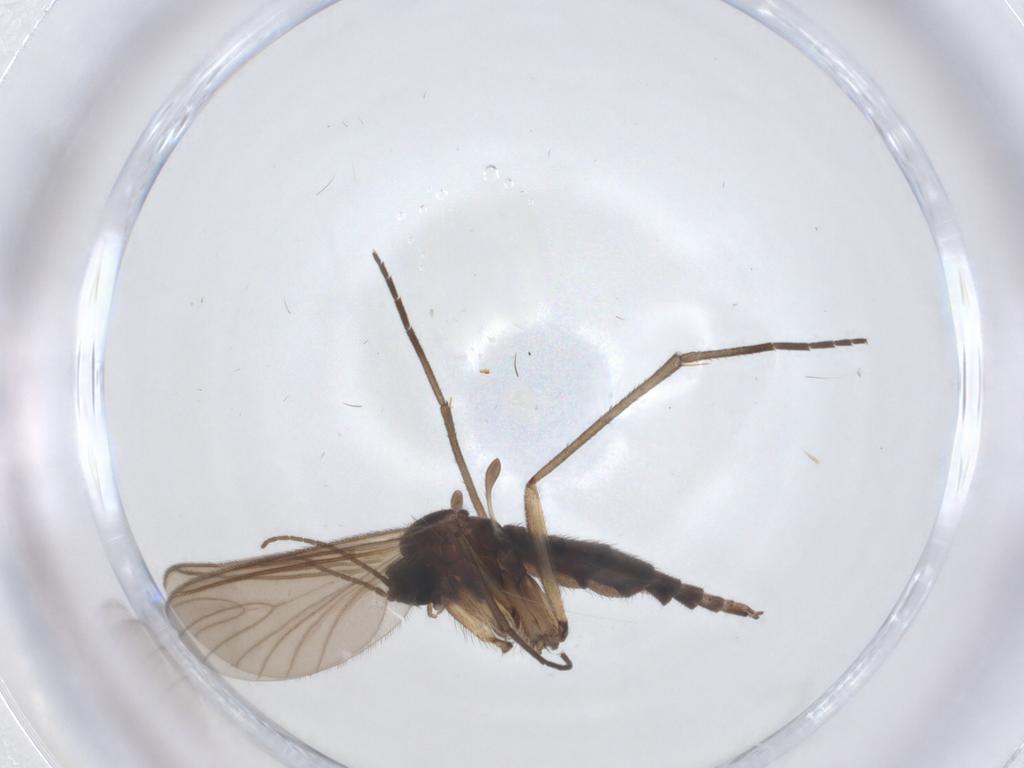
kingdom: Animalia
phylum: Arthropoda
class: Insecta
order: Diptera
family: Sciaridae
